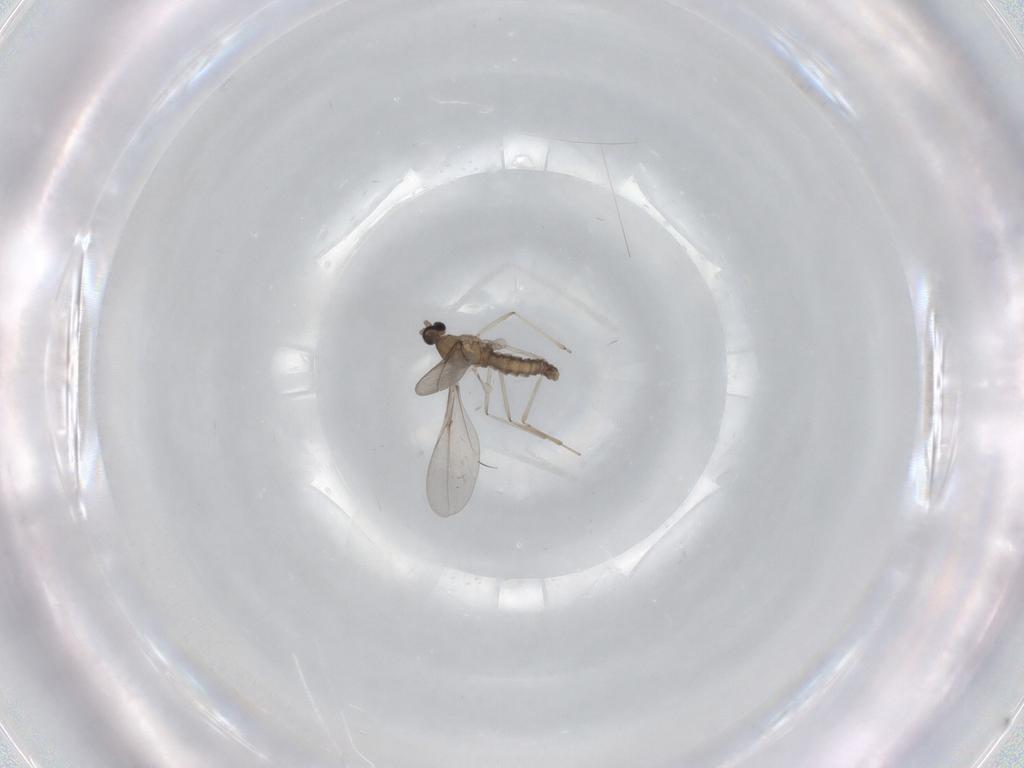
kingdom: Animalia
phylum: Arthropoda
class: Insecta
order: Diptera
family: Cecidomyiidae
